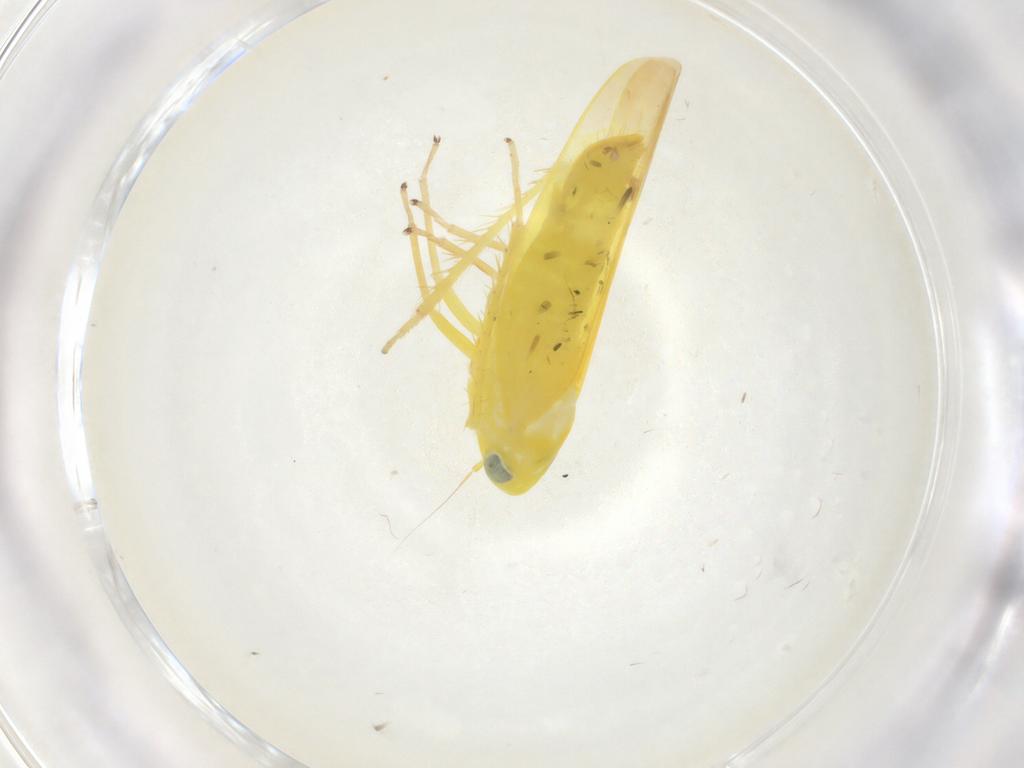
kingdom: Animalia
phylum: Arthropoda
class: Insecta
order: Hemiptera
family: Cicadellidae
